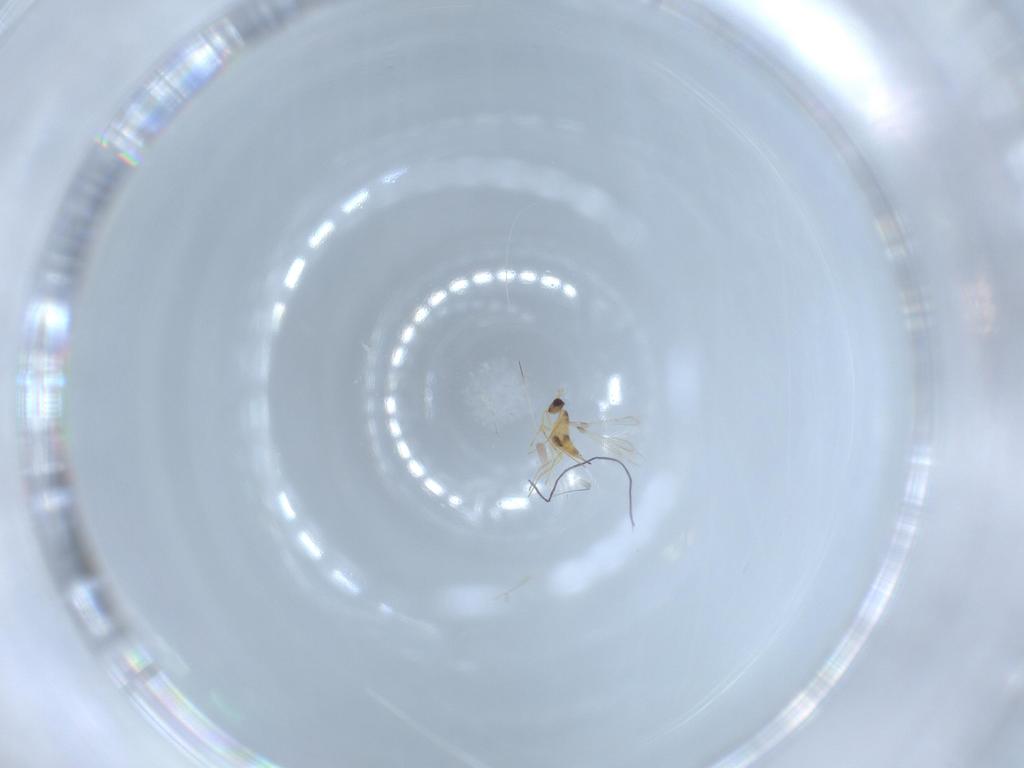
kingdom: Animalia
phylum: Arthropoda
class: Insecta
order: Hymenoptera
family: Mymaridae
